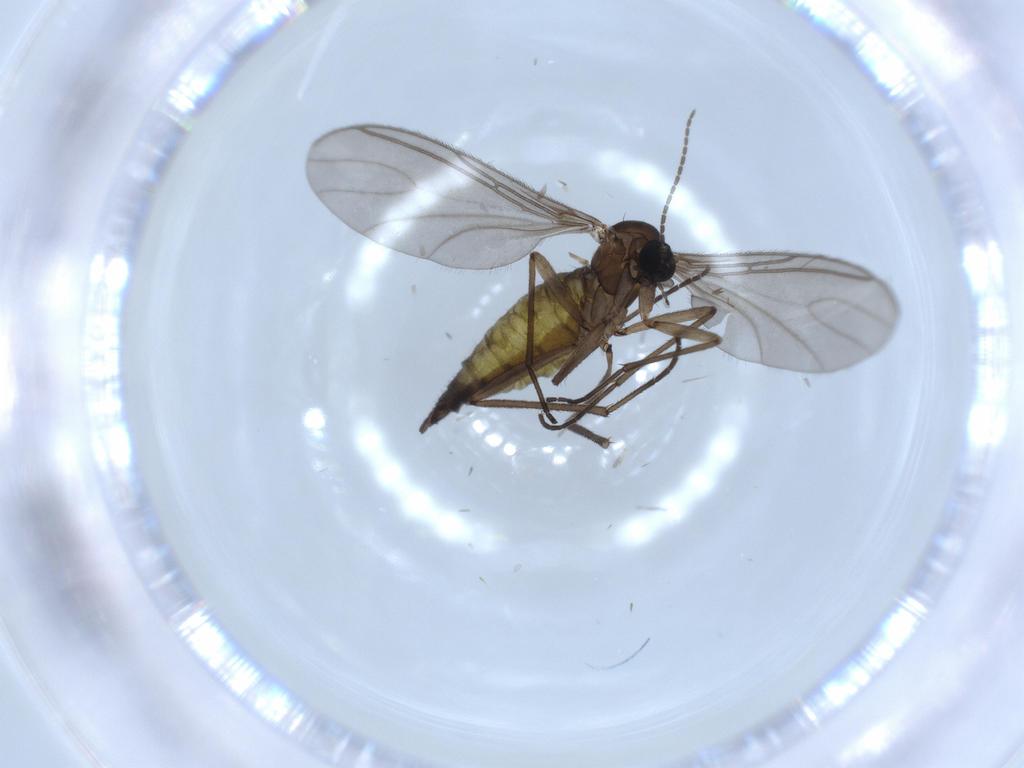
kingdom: Animalia
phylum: Arthropoda
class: Insecta
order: Diptera
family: Sciaridae
